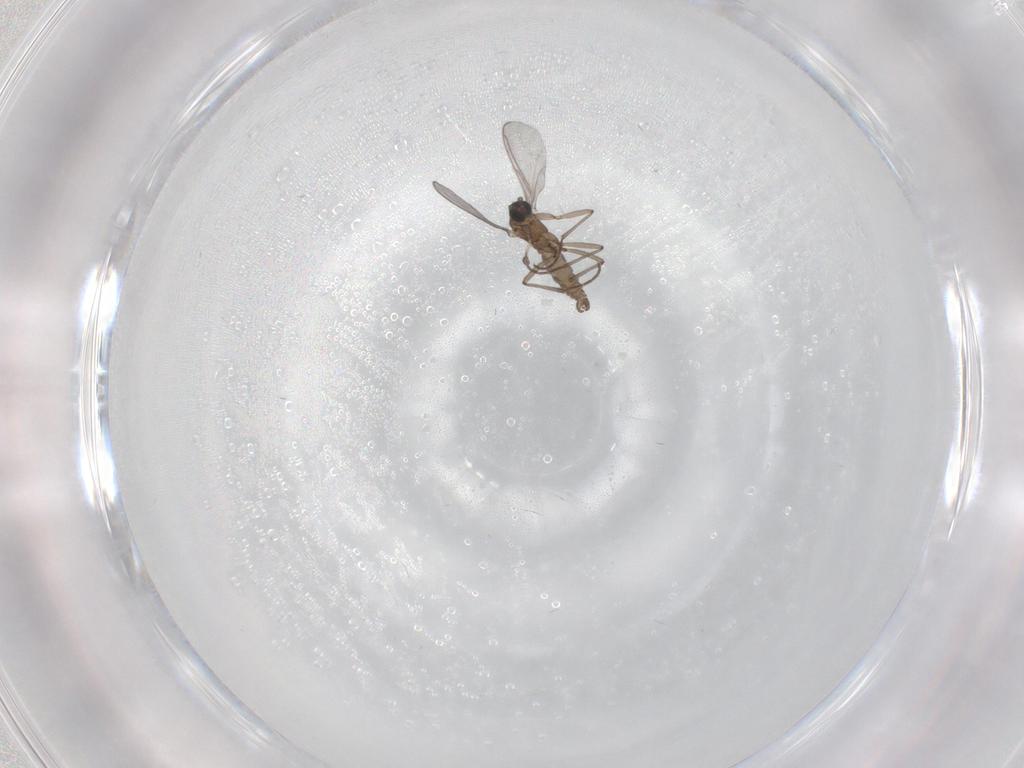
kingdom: Animalia
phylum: Arthropoda
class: Insecta
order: Diptera
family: Sciaridae
